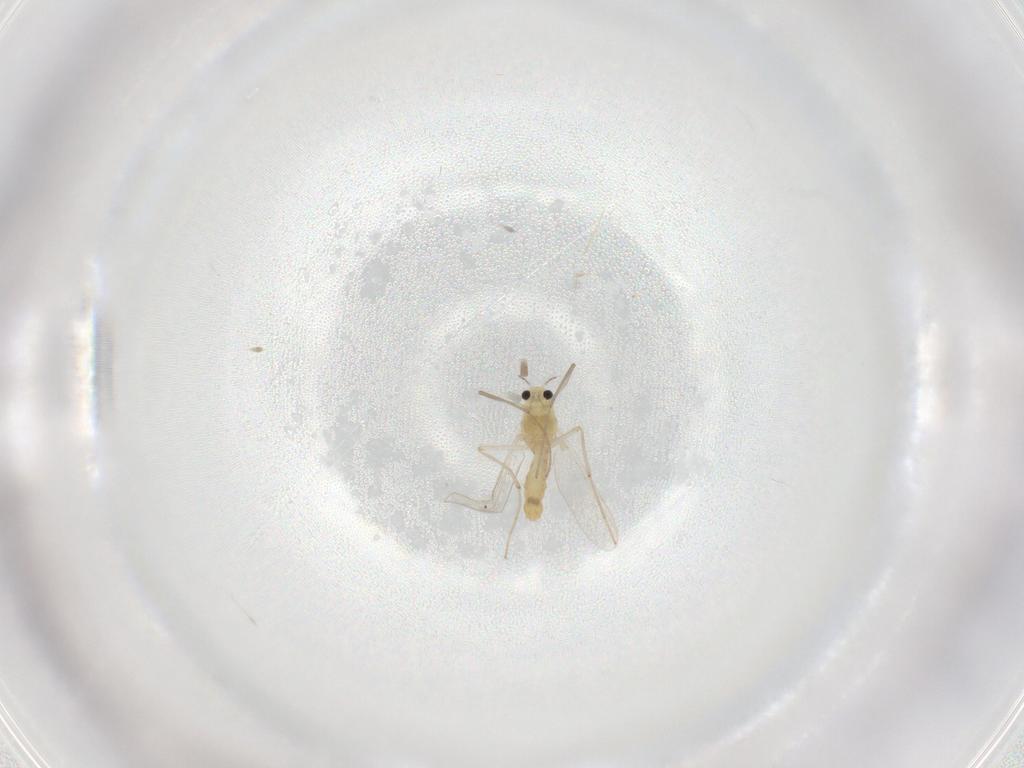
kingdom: Animalia
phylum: Arthropoda
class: Insecta
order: Diptera
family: Chironomidae
